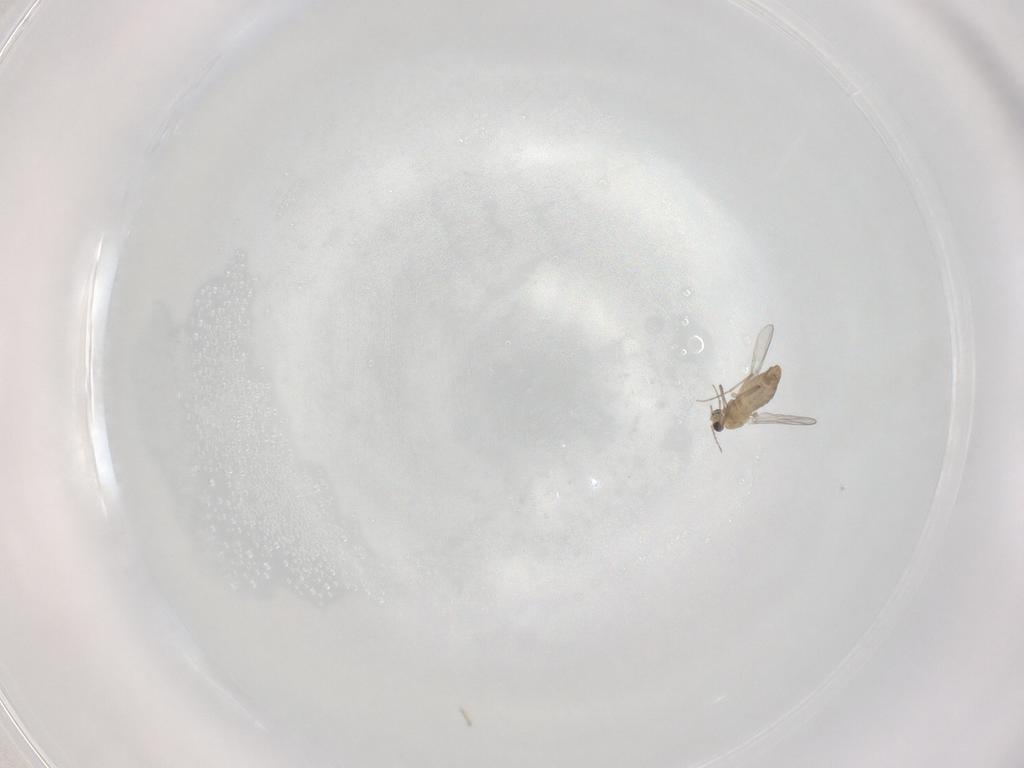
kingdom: Animalia
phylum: Arthropoda
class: Insecta
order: Diptera
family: Chironomidae
